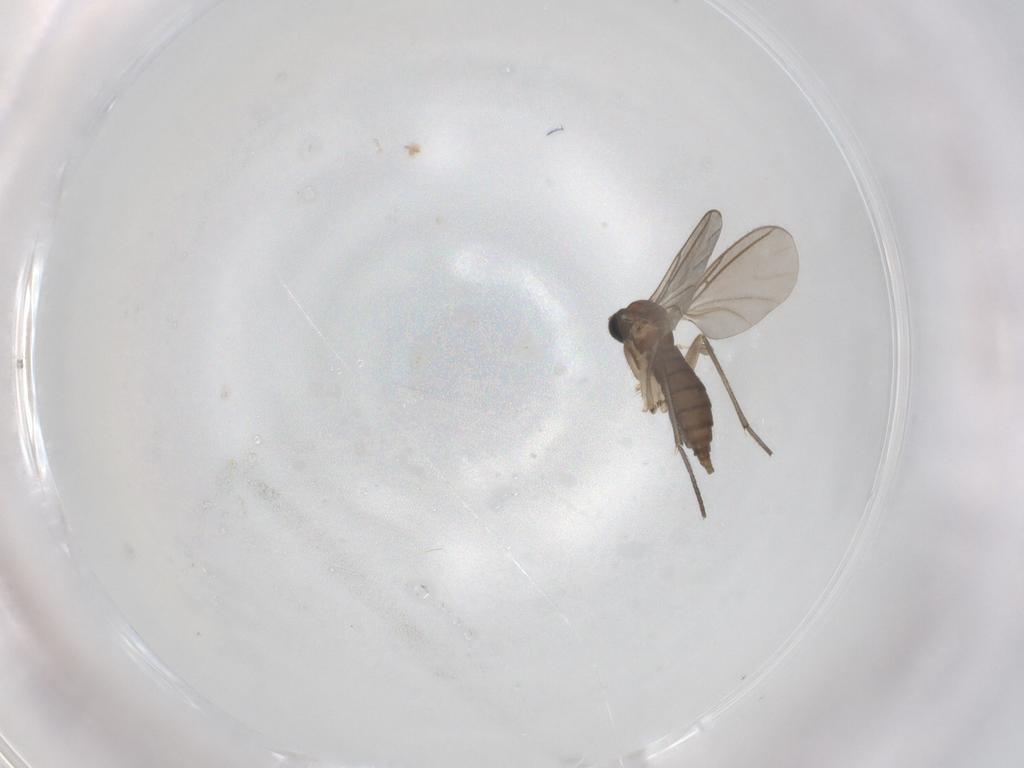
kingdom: Animalia
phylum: Arthropoda
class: Insecta
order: Diptera
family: Sciaridae
